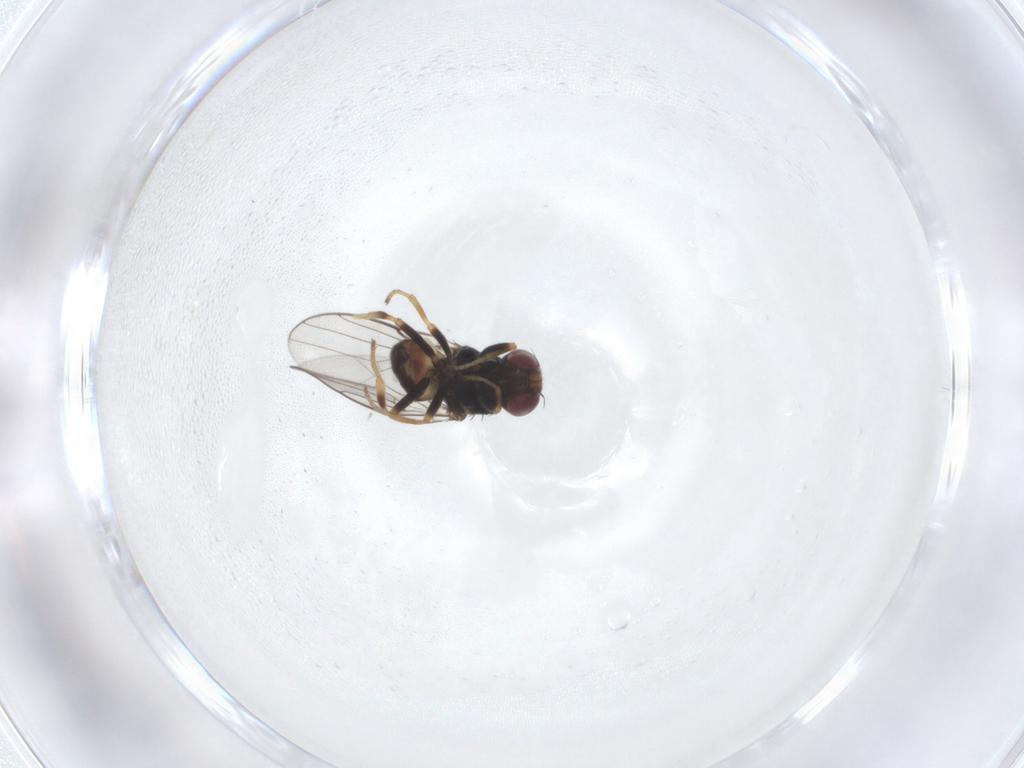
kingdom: Animalia
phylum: Arthropoda
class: Insecta
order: Diptera
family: Chloropidae
